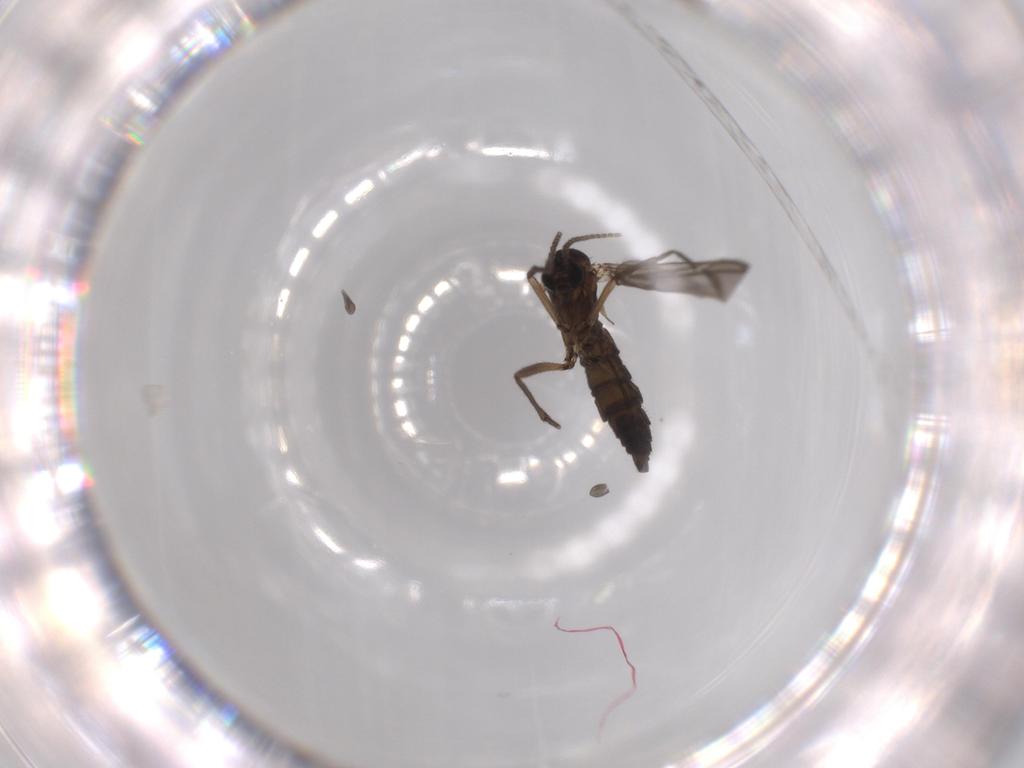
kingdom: Animalia
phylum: Arthropoda
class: Insecta
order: Diptera
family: Sciaridae
